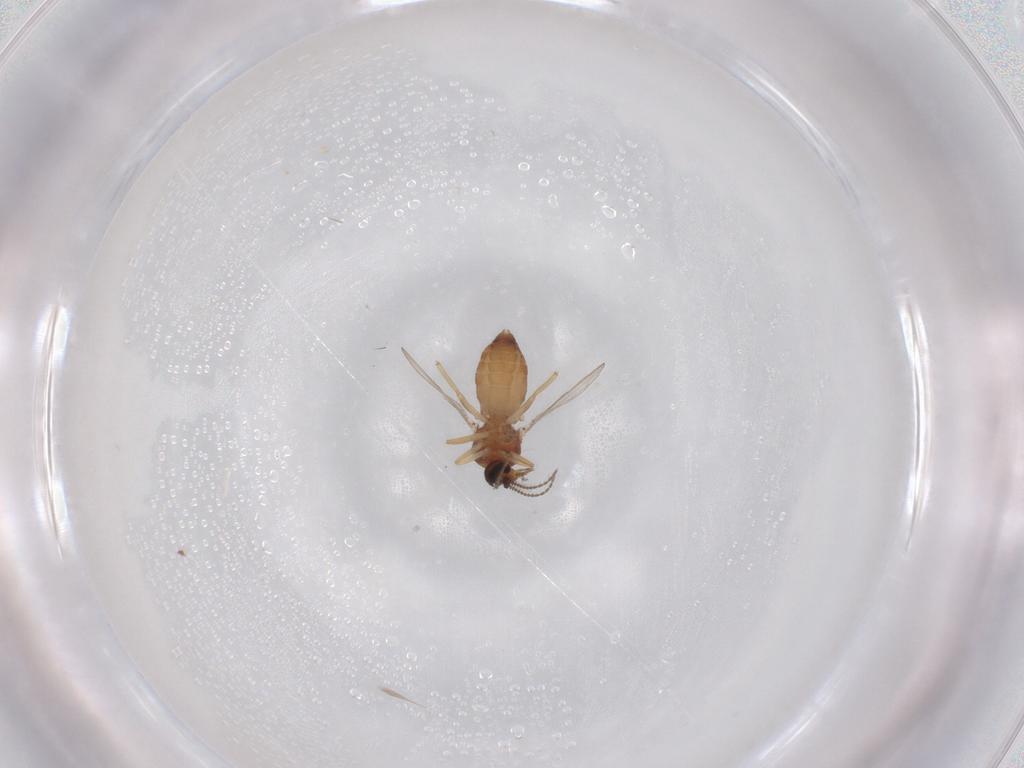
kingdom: Animalia
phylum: Arthropoda
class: Insecta
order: Diptera
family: Ceratopogonidae
